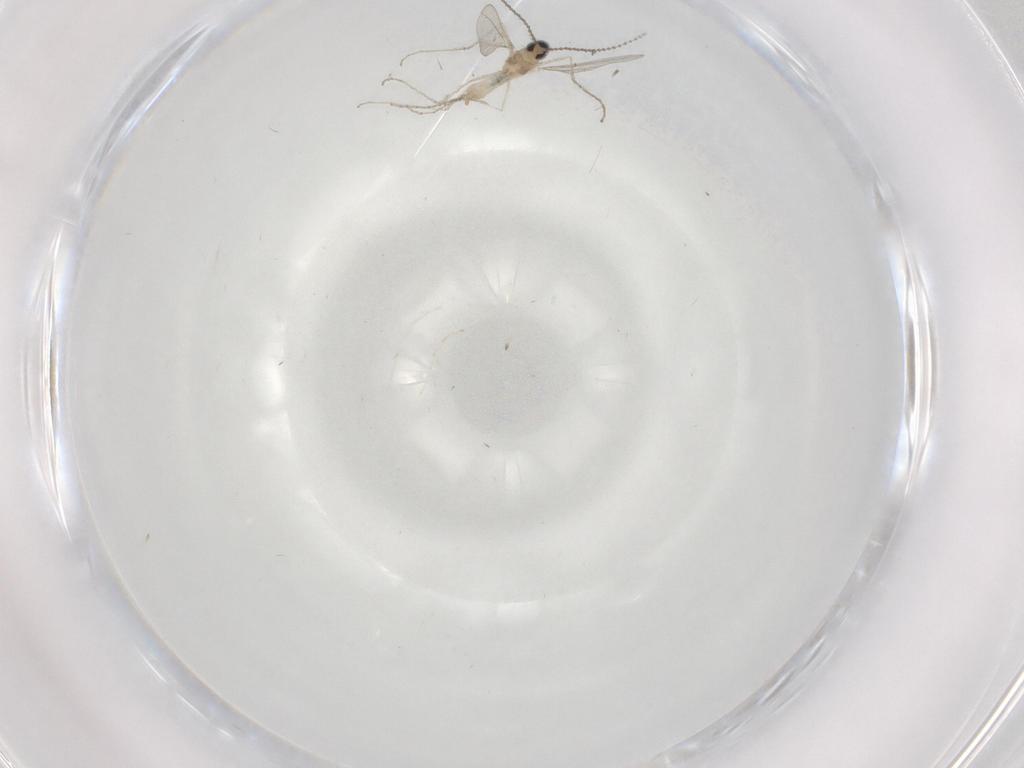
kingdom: Animalia
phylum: Arthropoda
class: Insecta
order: Diptera
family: Cecidomyiidae
